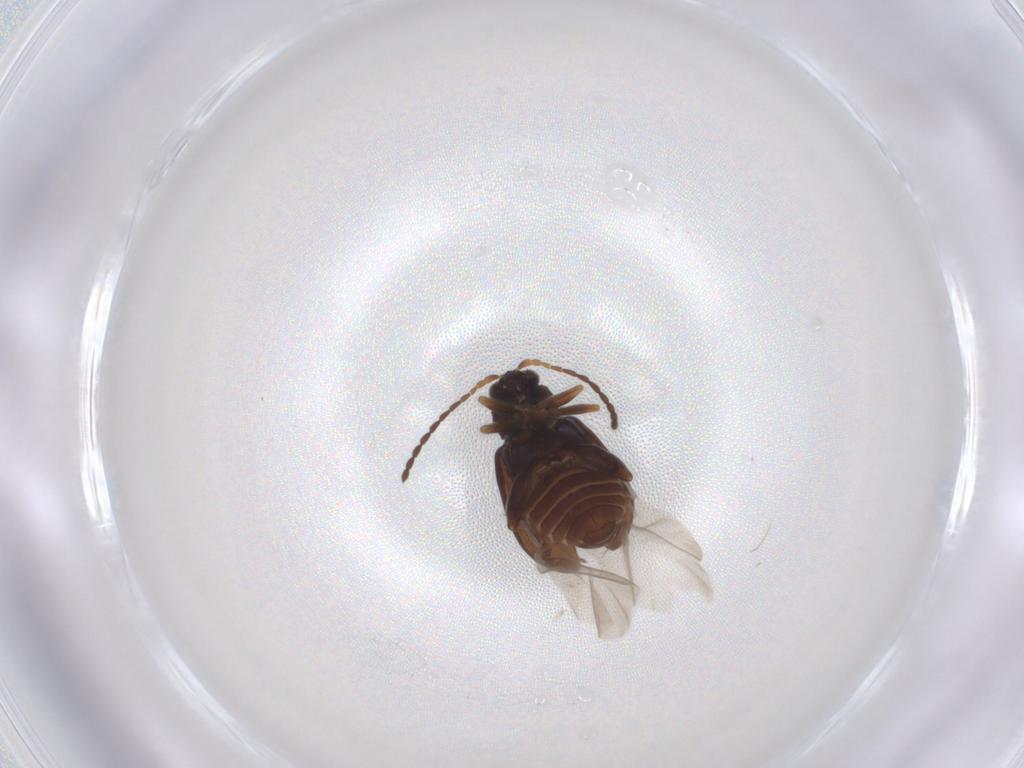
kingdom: Animalia
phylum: Arthropoda
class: Insecta
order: Coleoptera
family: Chrysomelidae
